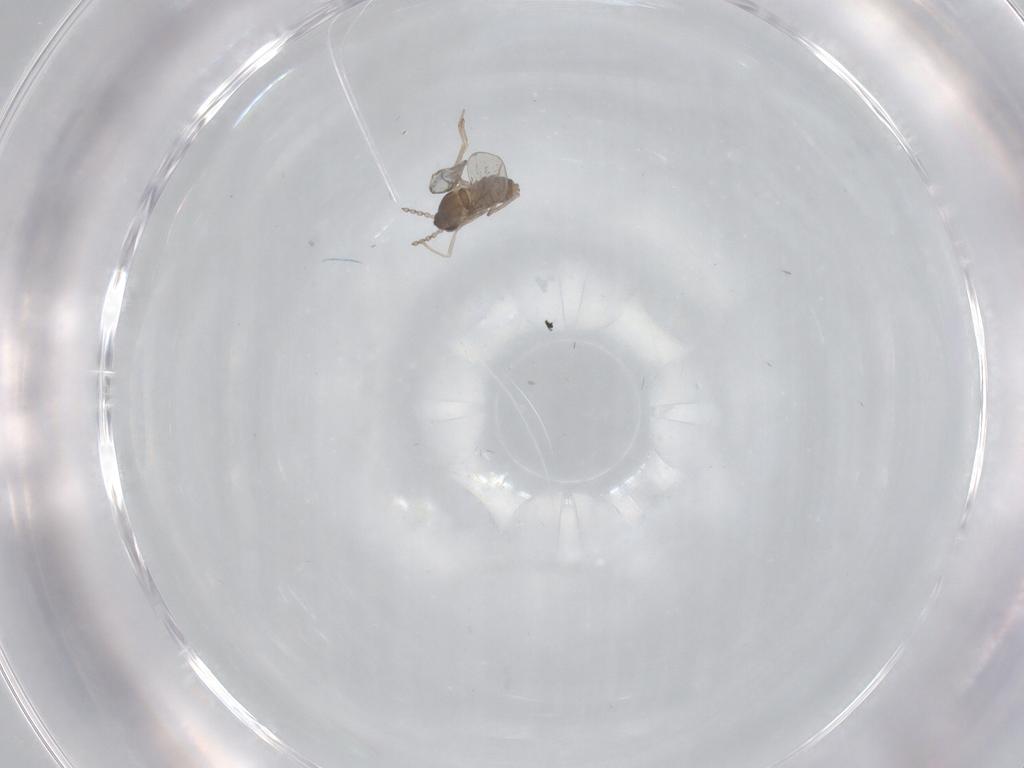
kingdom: Animalia
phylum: Arthropoda
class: Insecta
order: Diptera
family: Cecidomyiidae
